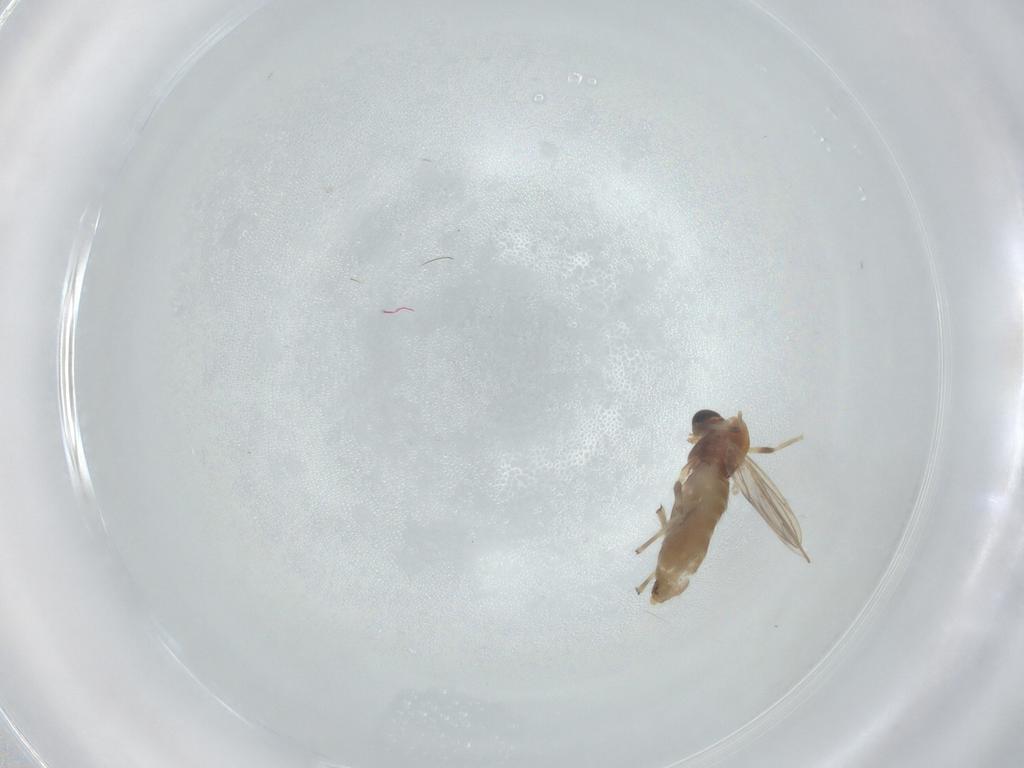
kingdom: Animalia
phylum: Arthropoda
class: Insecta
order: Diptera
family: Chironomidae
